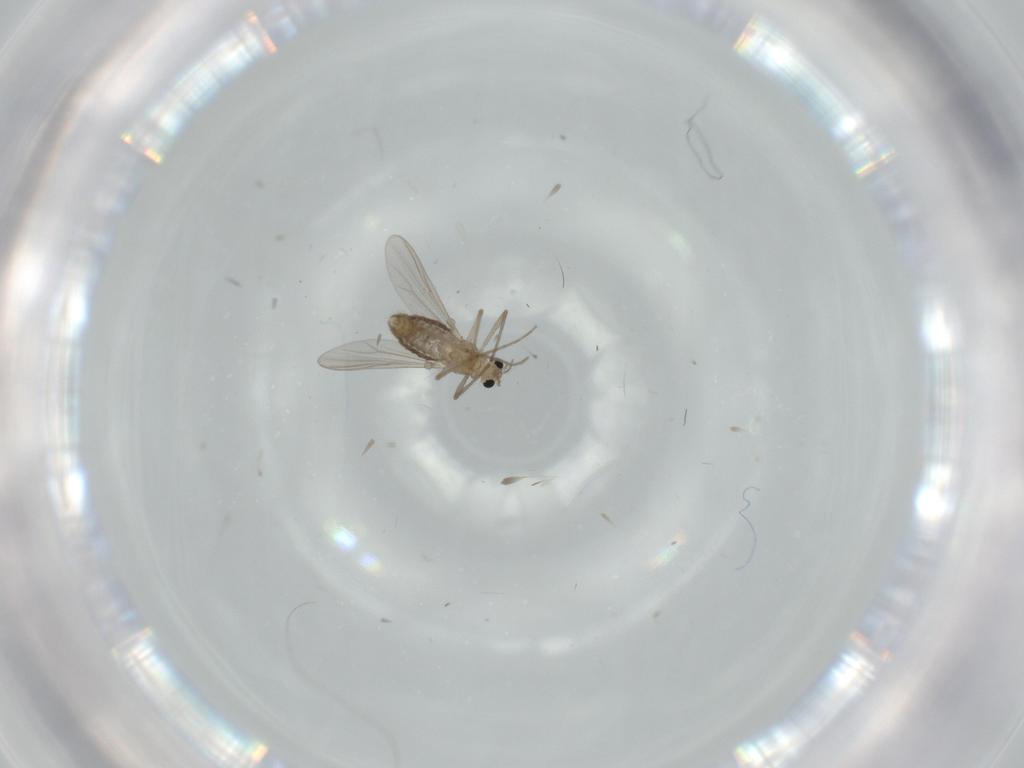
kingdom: Animalia
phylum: Arthropoda
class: Insecta
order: Diptera
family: Chironomidae
